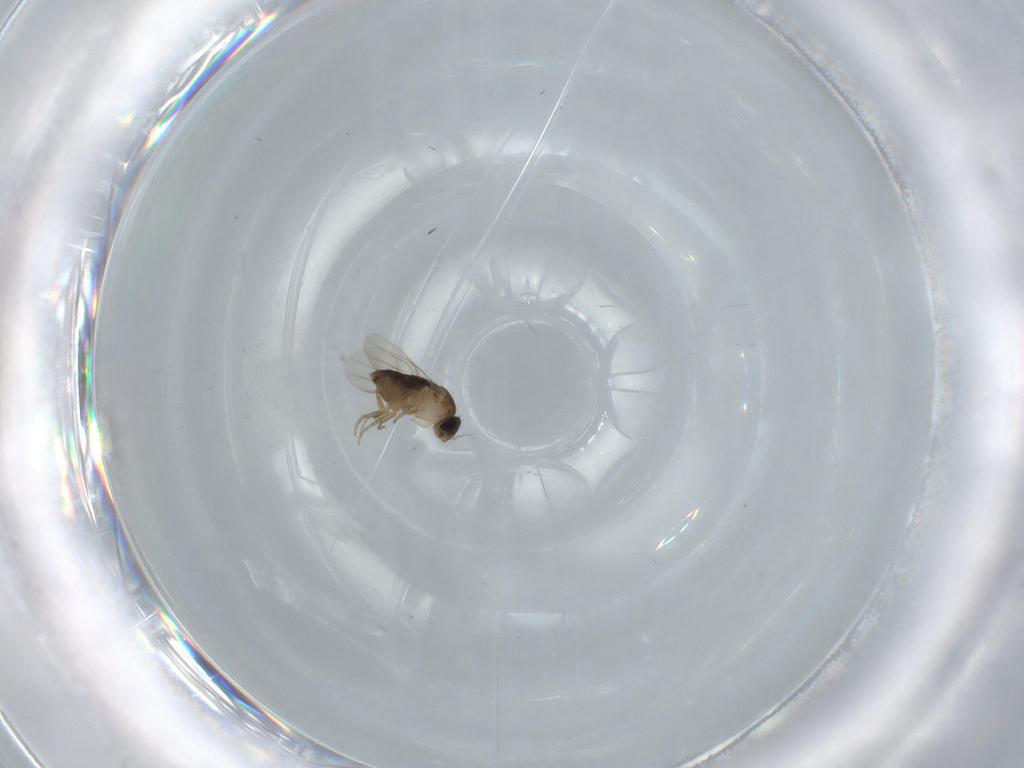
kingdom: Animalia
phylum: Arthropoda
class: Insecta
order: Diptera
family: Phoridae
